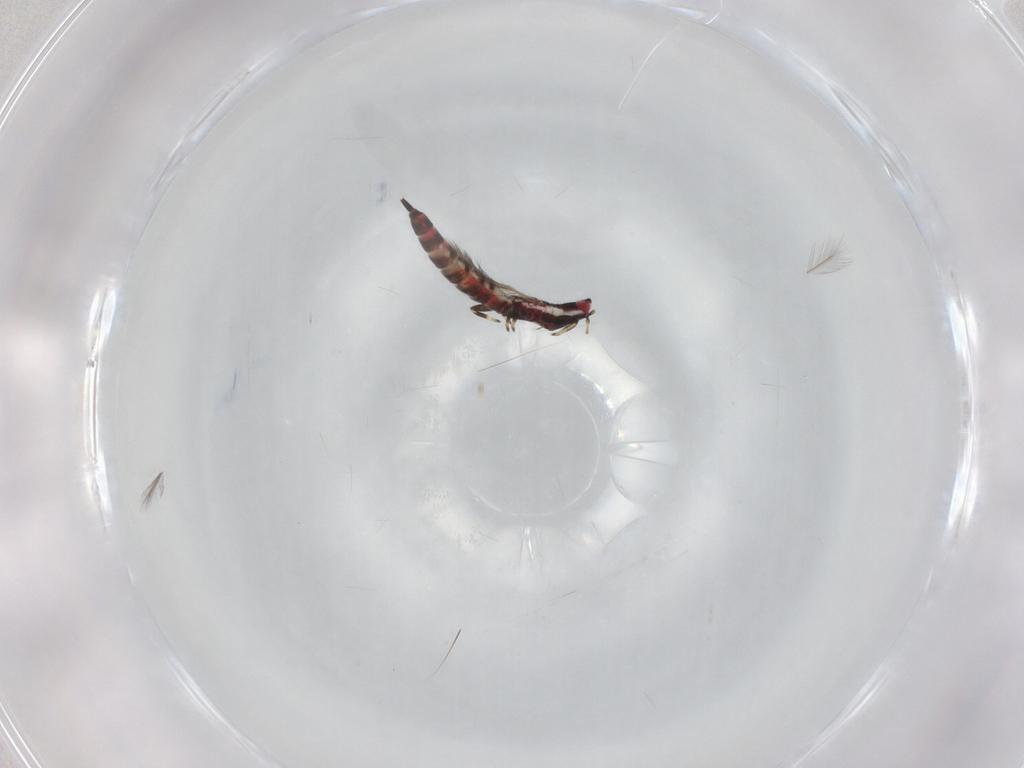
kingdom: Animalia
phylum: Arthropoda
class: Insecta
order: Thysanoptera
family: Phlaeothripidae
